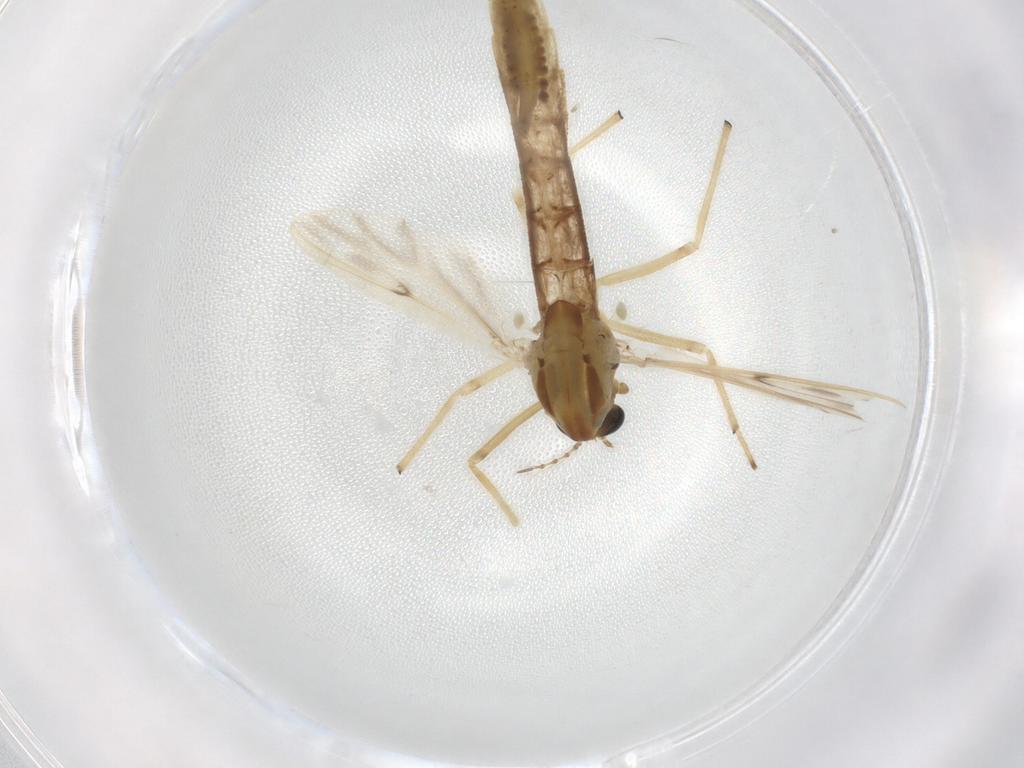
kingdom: Animalia
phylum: Arthropoda
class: Insecta
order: Diptera
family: Chironomidae
